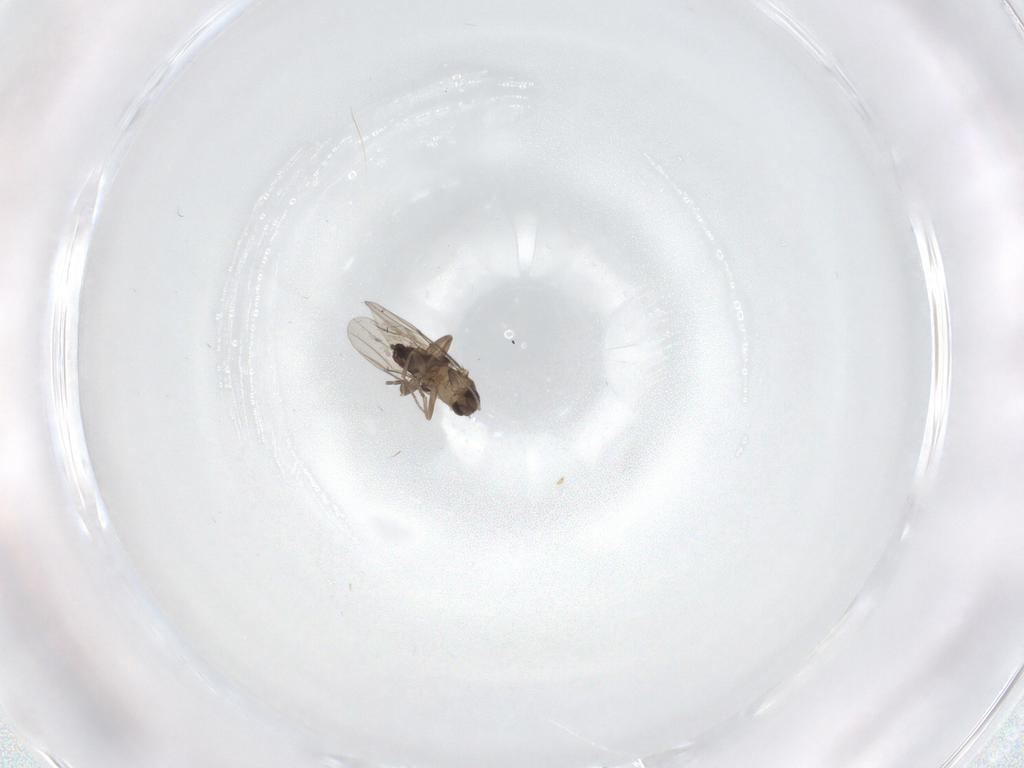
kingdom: Animalia
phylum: Arthropoda
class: Insecta
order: Diptera
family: Phoridae
